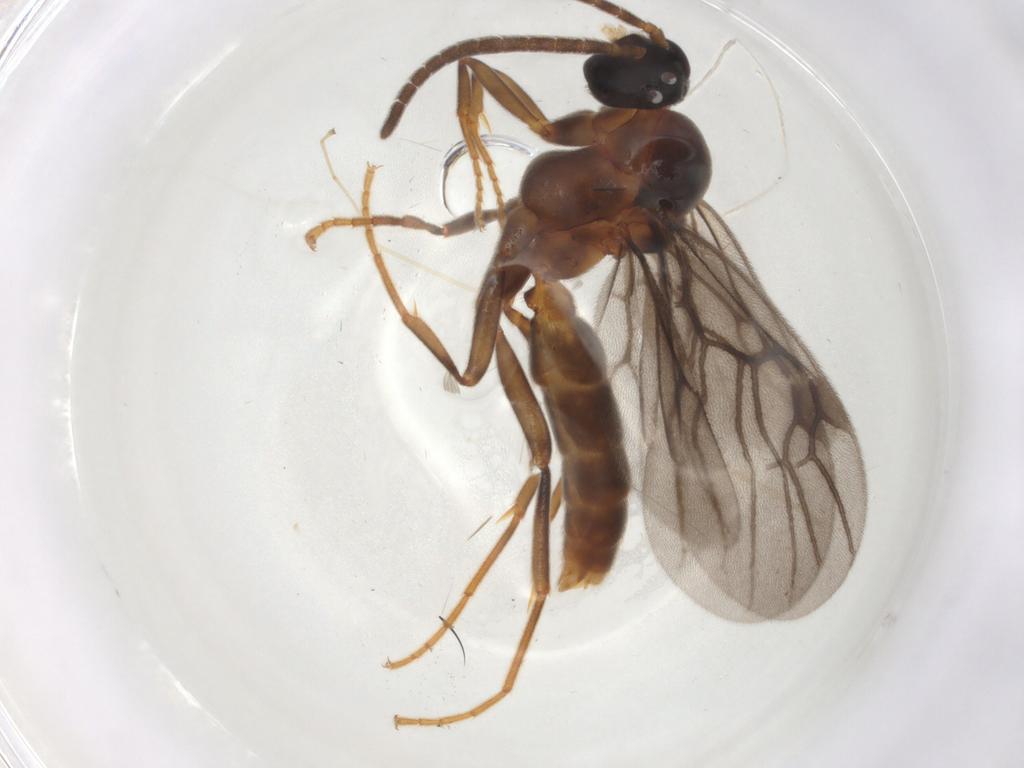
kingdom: Animalia
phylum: Arthropoda
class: Insecta
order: Hymenoptera
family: Formicidae
